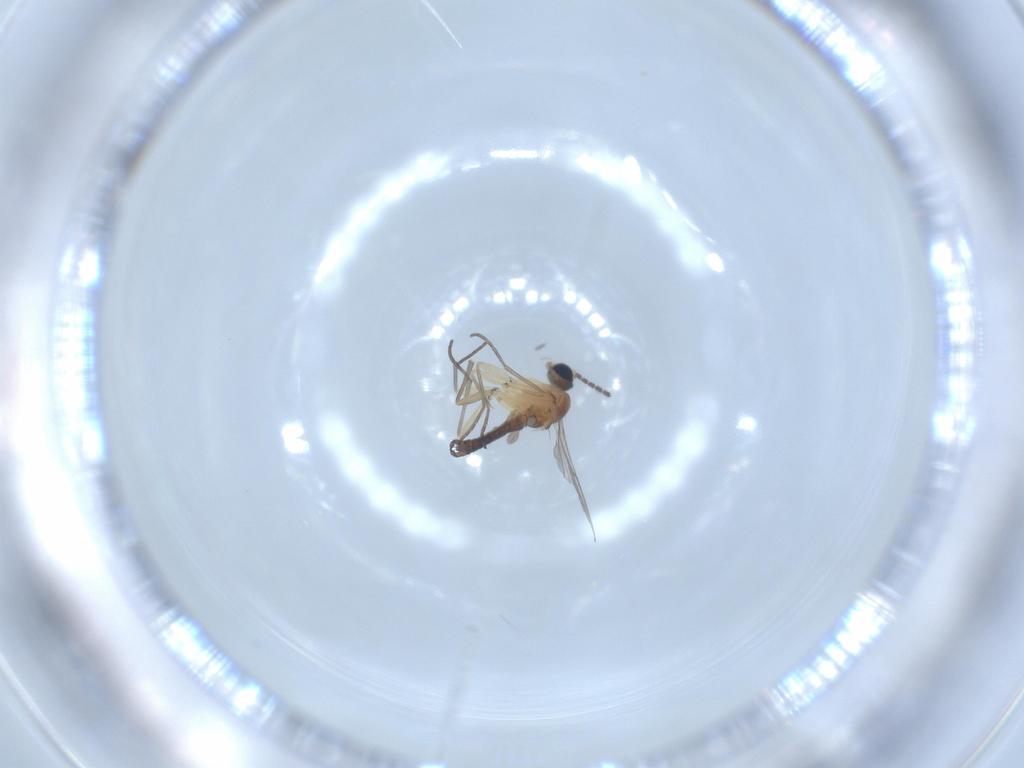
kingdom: Animalia
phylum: Arthropoda
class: Insecta
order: Diptera
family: Sciaridae
